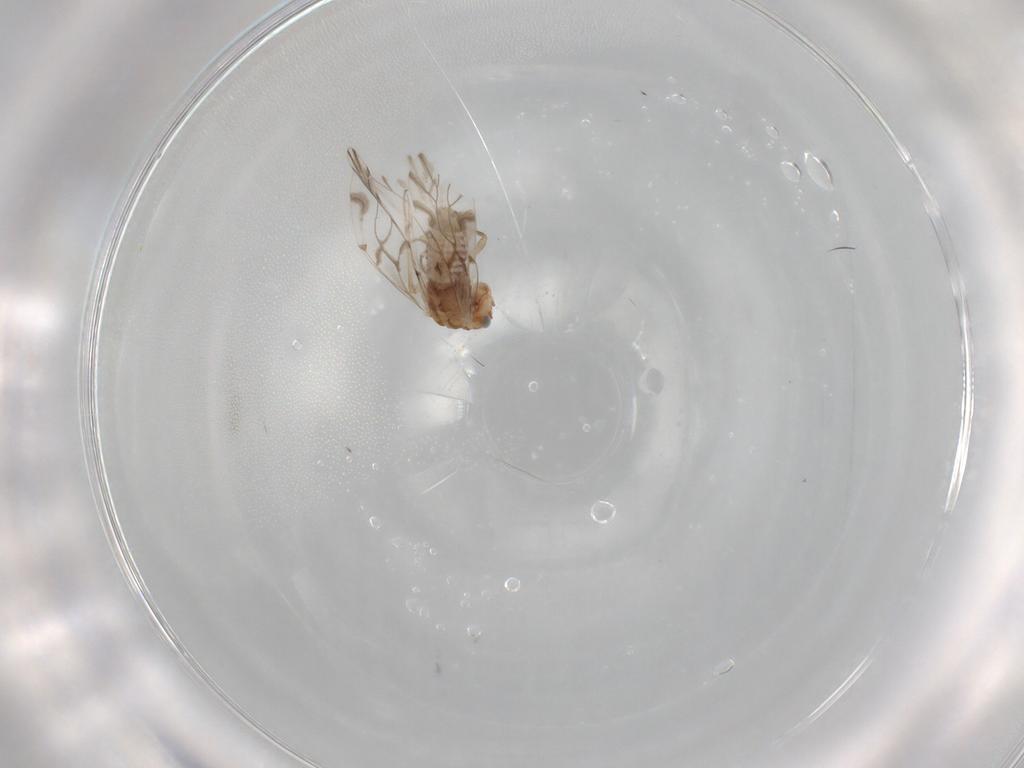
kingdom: Animalia
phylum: Arthropoda
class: Insecta
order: Psocodea
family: Lachesillidae
